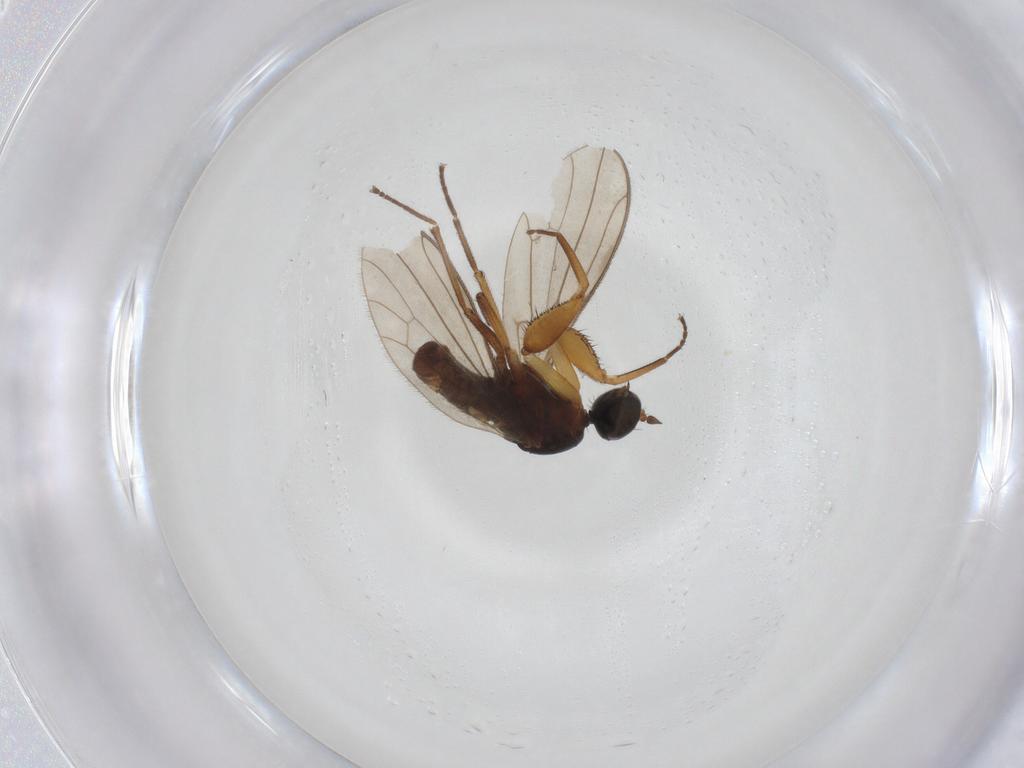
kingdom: Animalia
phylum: Arthropoda
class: Insecta
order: Diptera
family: Empididae
